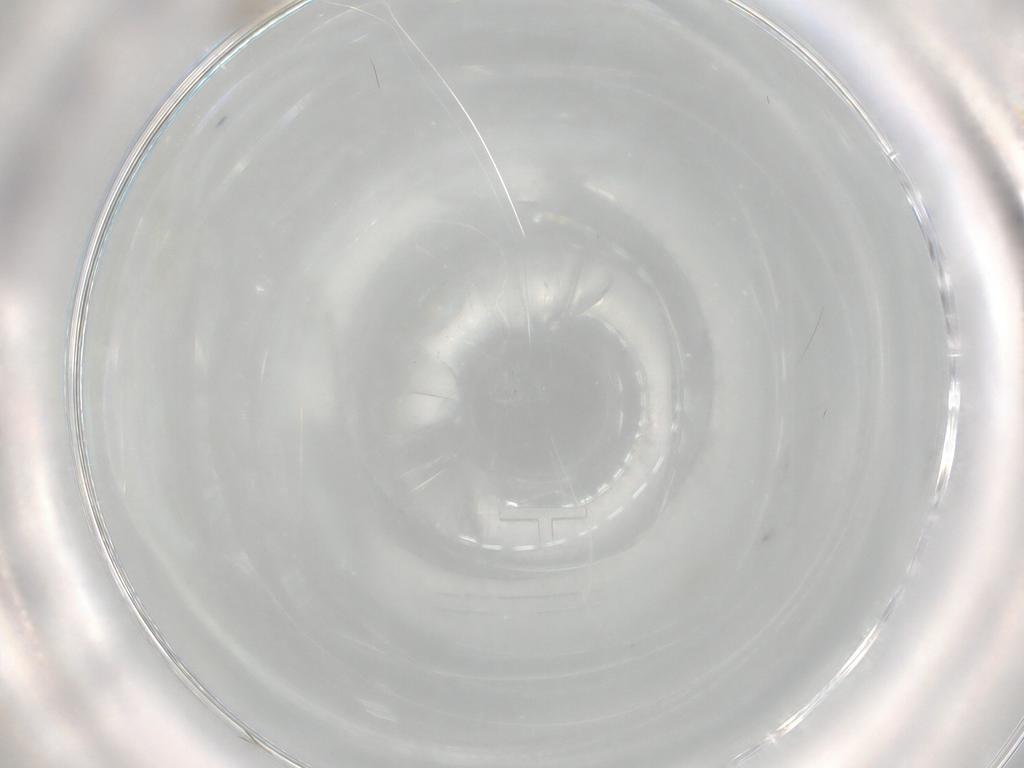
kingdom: Animalia
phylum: Arthropoda
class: Insecta
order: Diptera
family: Cecidomyiidae
